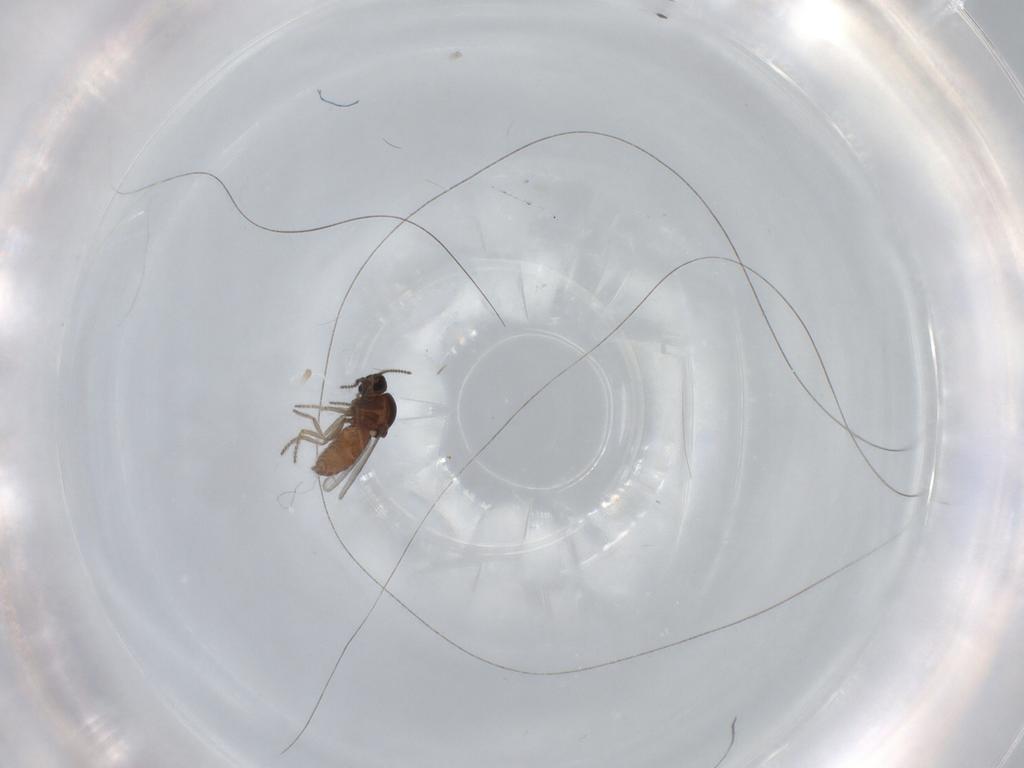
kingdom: Animalia
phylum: Arthropoda
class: Insecta
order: Diptera
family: Ceratopogonidae
